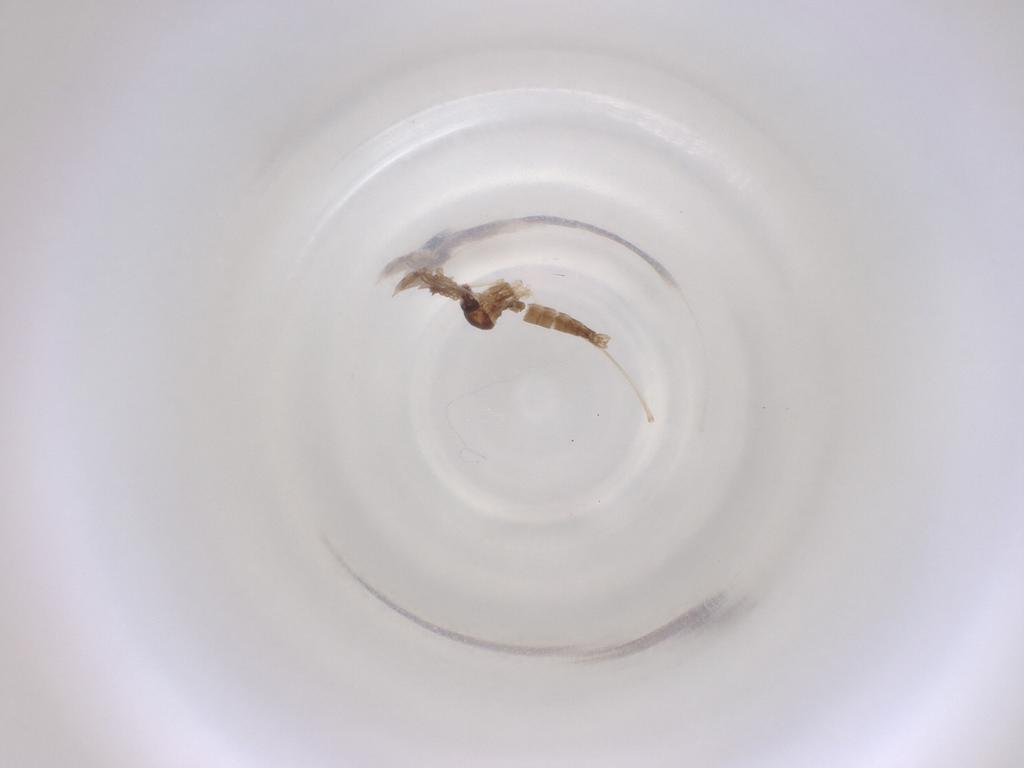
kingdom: Animalia
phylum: Arthropoda
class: Insecta
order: Diptera
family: Cecidomyiidae
